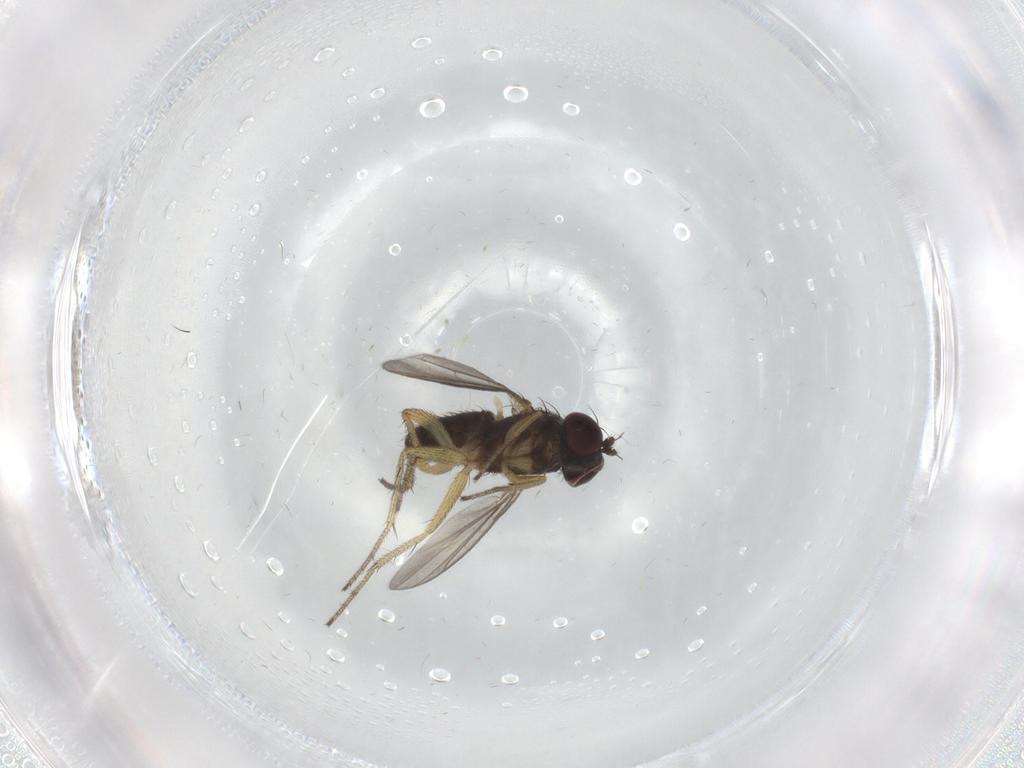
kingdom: Animalia
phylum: Arthropoda
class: Insecta
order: Diptera
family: Dolichopodidae
